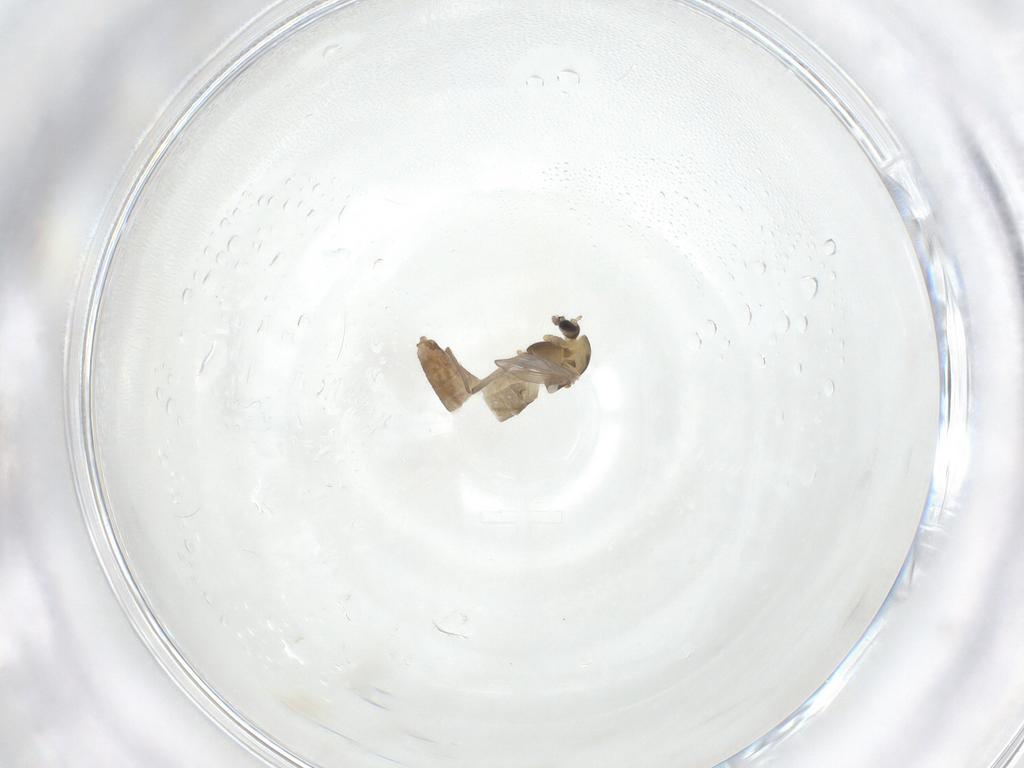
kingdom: Animalia
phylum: Arthropoda
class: Insecta
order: Diptera
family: Chironomidae
